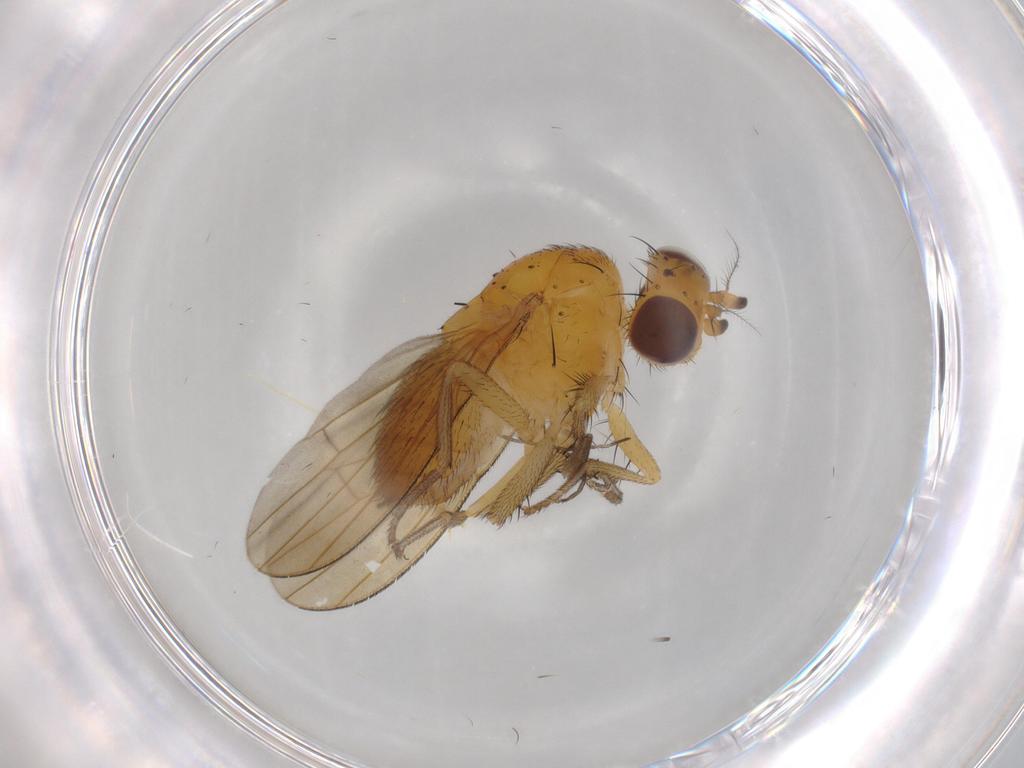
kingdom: Animalia
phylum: Arthropoda
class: Insecta
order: Diptera
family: Lauxaniidae
